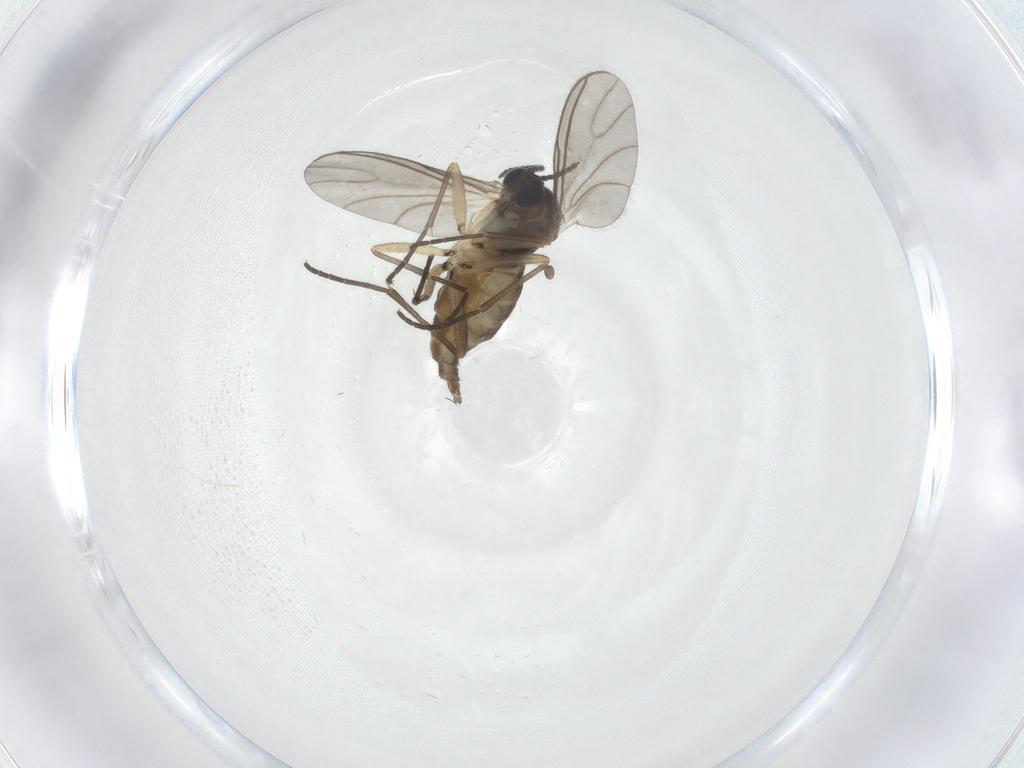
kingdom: Animalia
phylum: Arthropoda
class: Insecta
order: Diptera
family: Sciaridae
